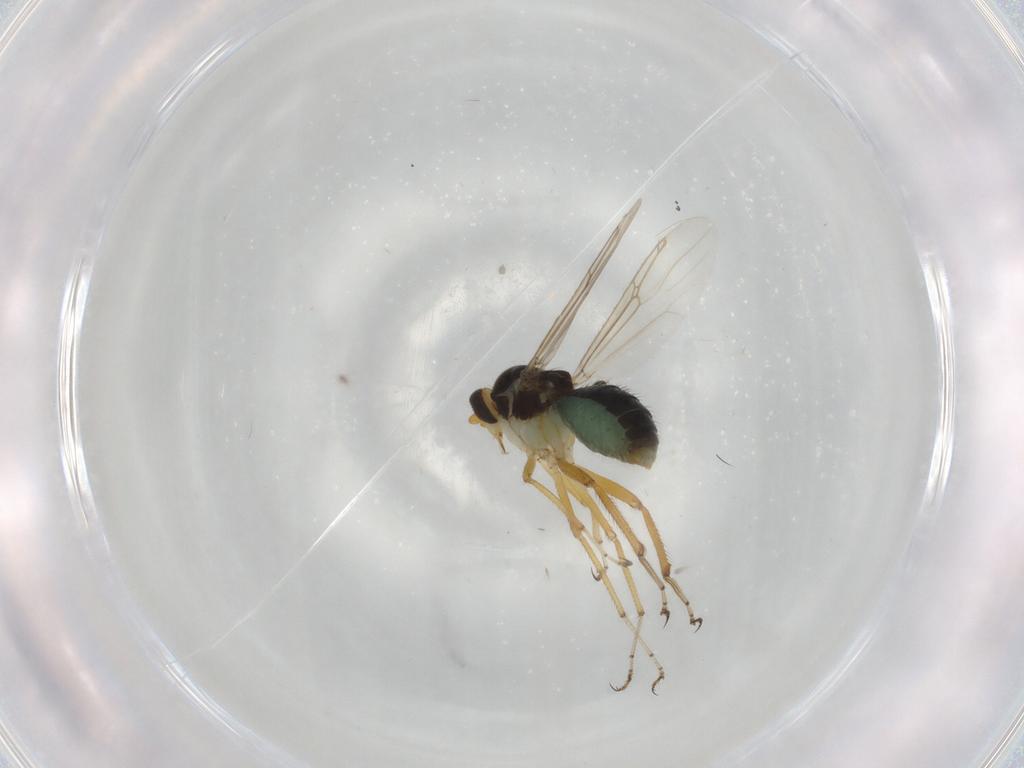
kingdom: Animalia
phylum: Arthropoda
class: Insecta
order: Diptera
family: Ceratopogonidae
